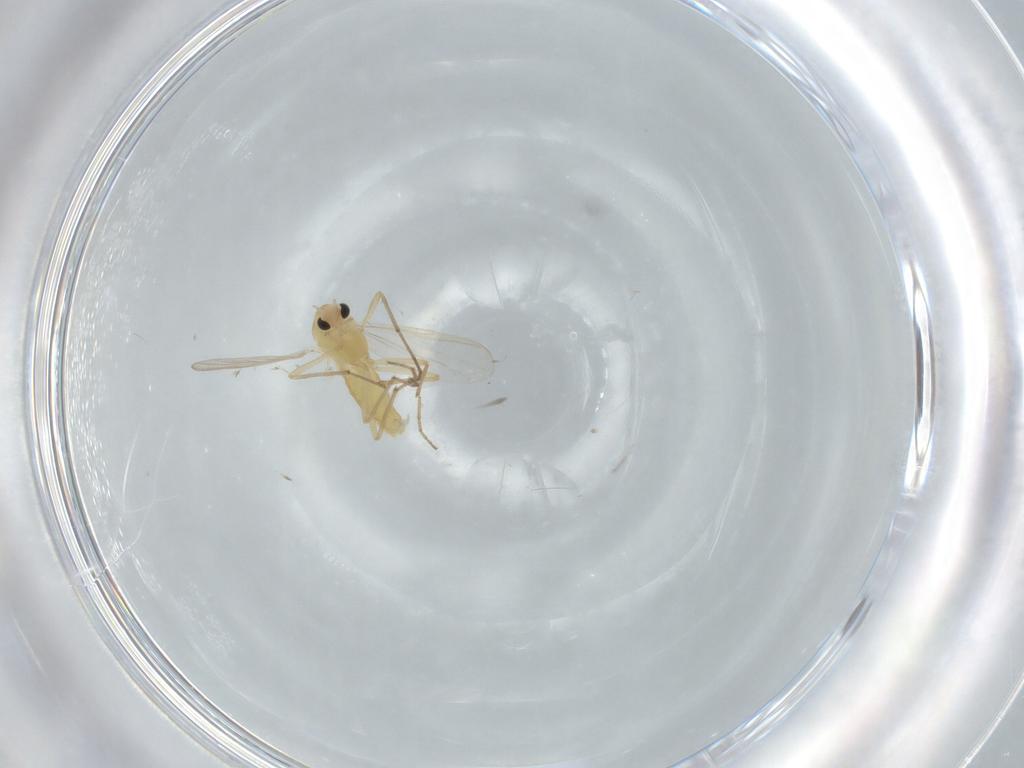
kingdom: Animalia
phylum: Arthropoda
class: Insecta
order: Diptera
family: Chironomidae
